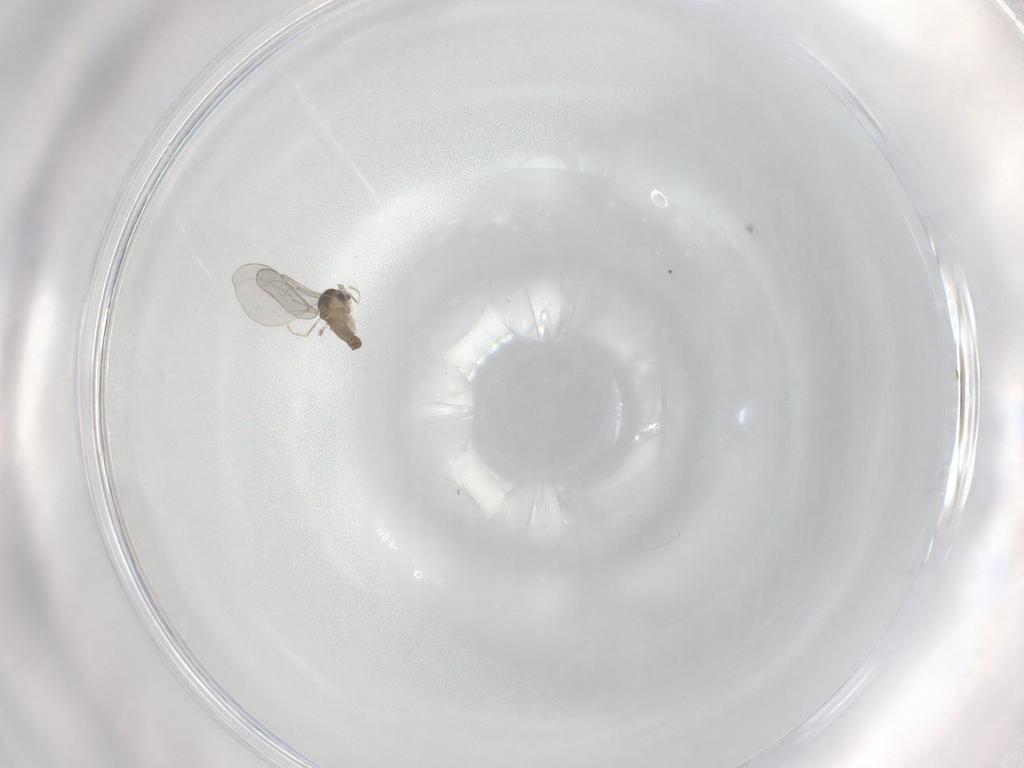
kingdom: Animalia
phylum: Arthropoda
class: Insecta
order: Diptera
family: Cecidomyiidae
